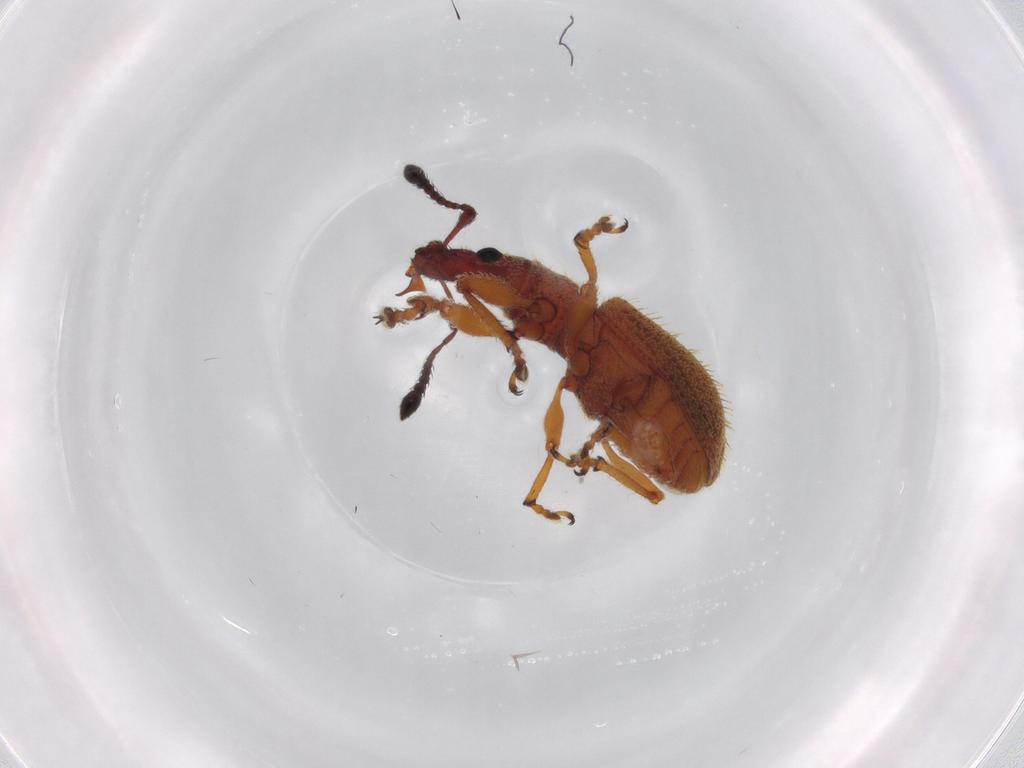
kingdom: Animalia
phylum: Arthropoda
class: Insecta
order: Coleoptera
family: Curculionidae
